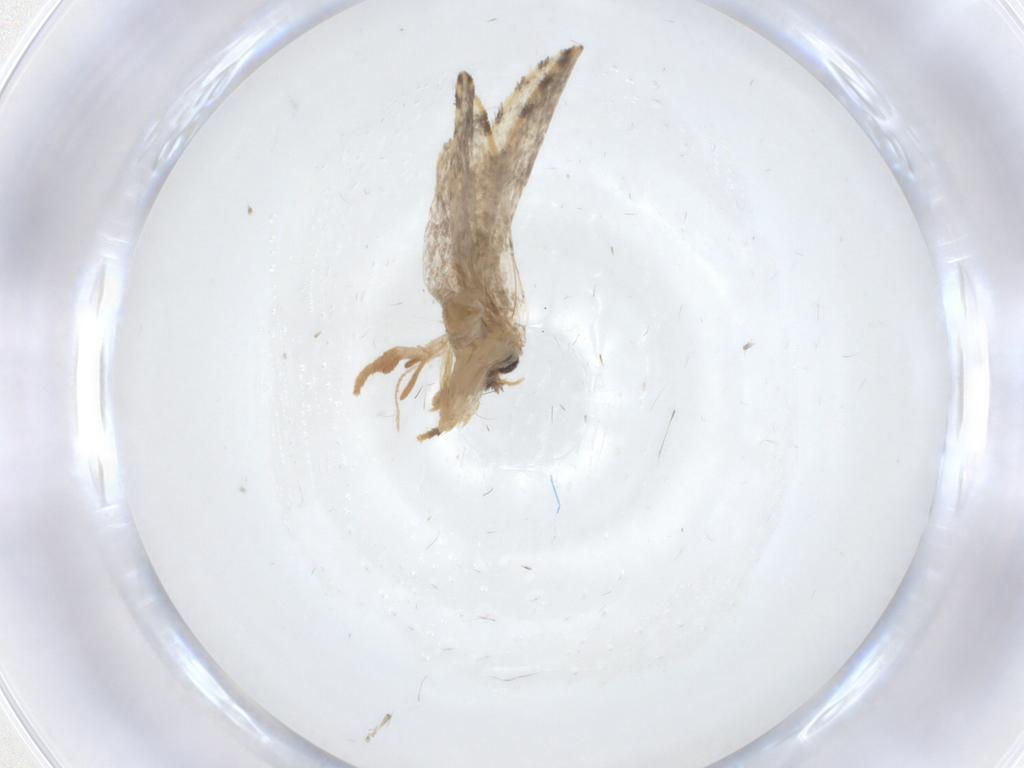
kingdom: Animalia
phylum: Arthropoda
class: Insecta
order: Lepidoptera
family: Psychidae
